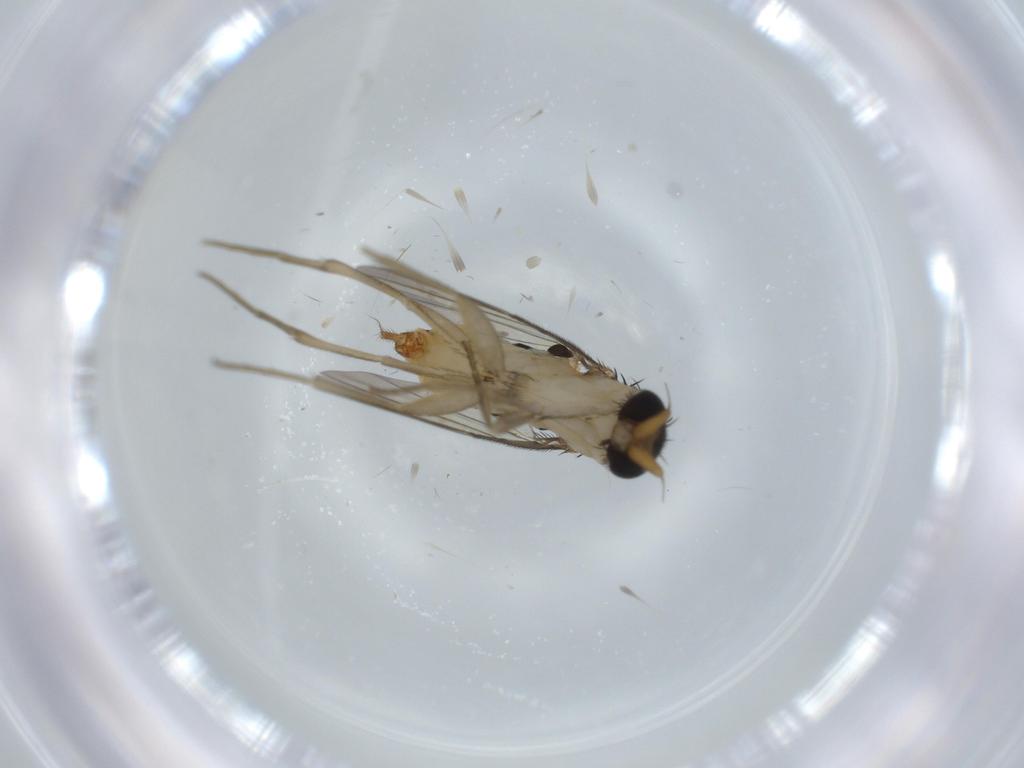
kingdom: Animalia
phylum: Arthropoda
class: Insecta
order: Diptera
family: Phoridae
